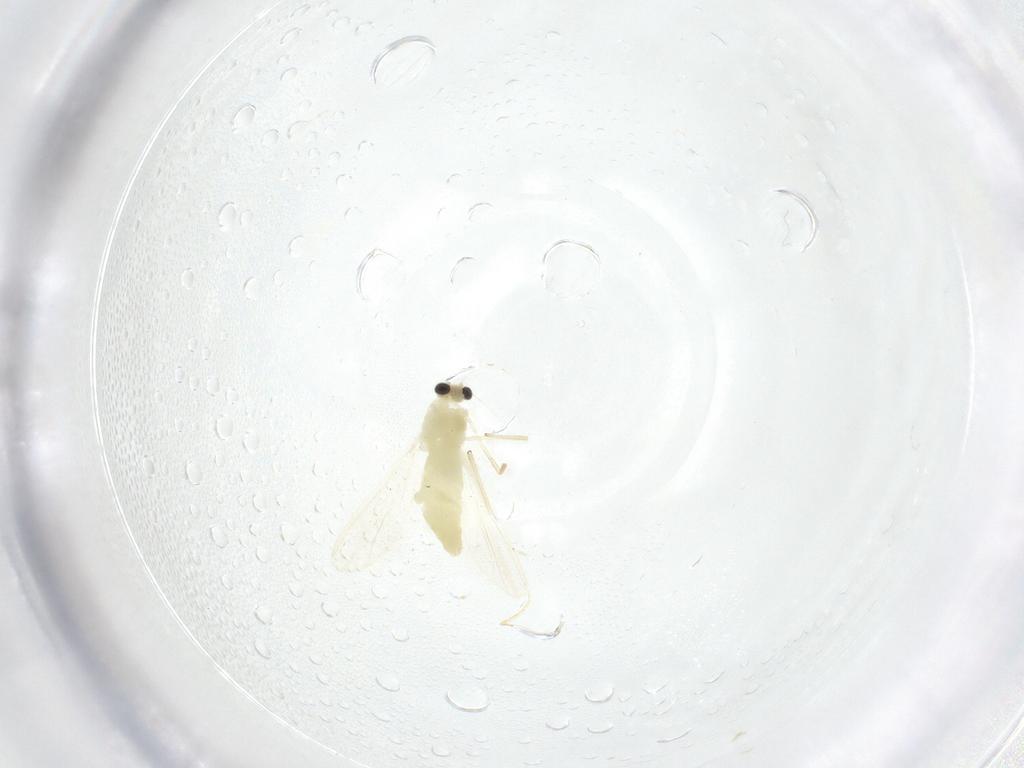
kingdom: Animalia
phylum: Arthropoda
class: Insecta
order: Diptera
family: Chironomidae
